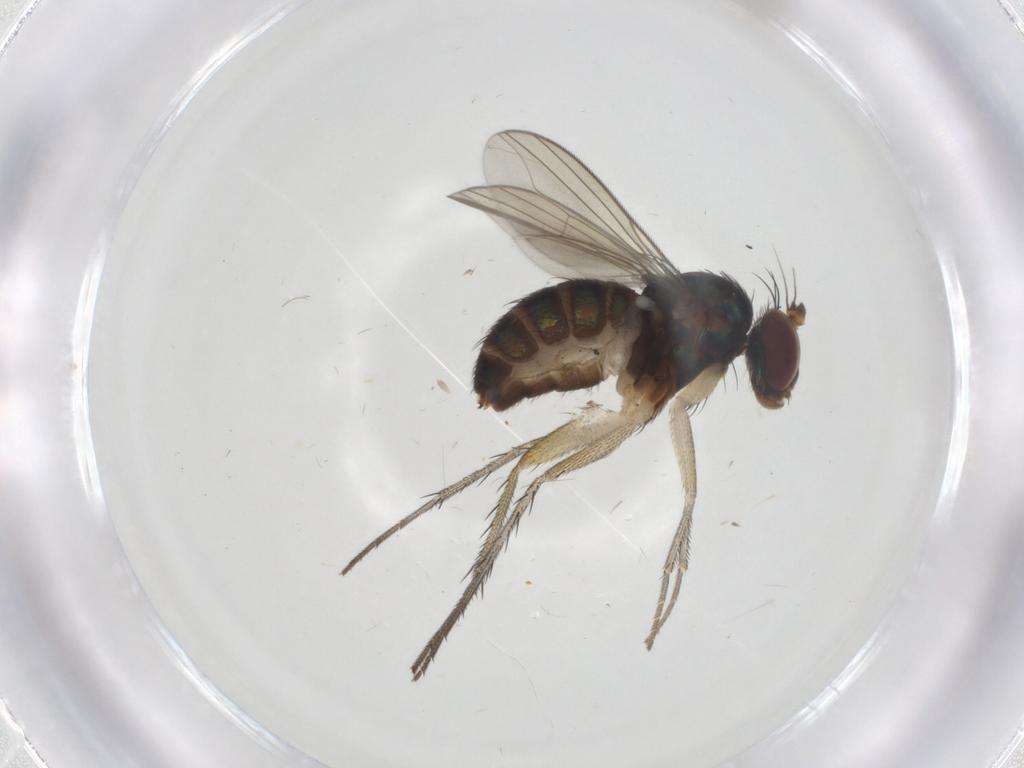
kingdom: Animalia
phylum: Arthropoda
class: Insecta
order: Diptera
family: Dolichopodidae
